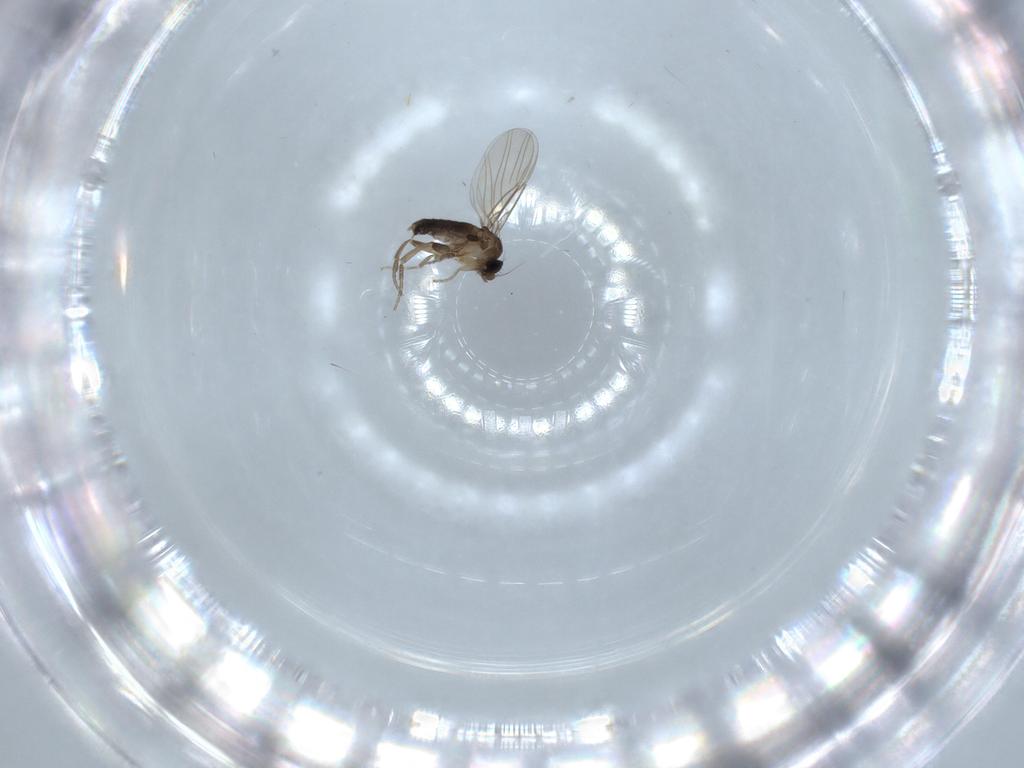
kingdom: Animalia
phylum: Arthropoda
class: Insecta
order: Diptera
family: Phoridae
